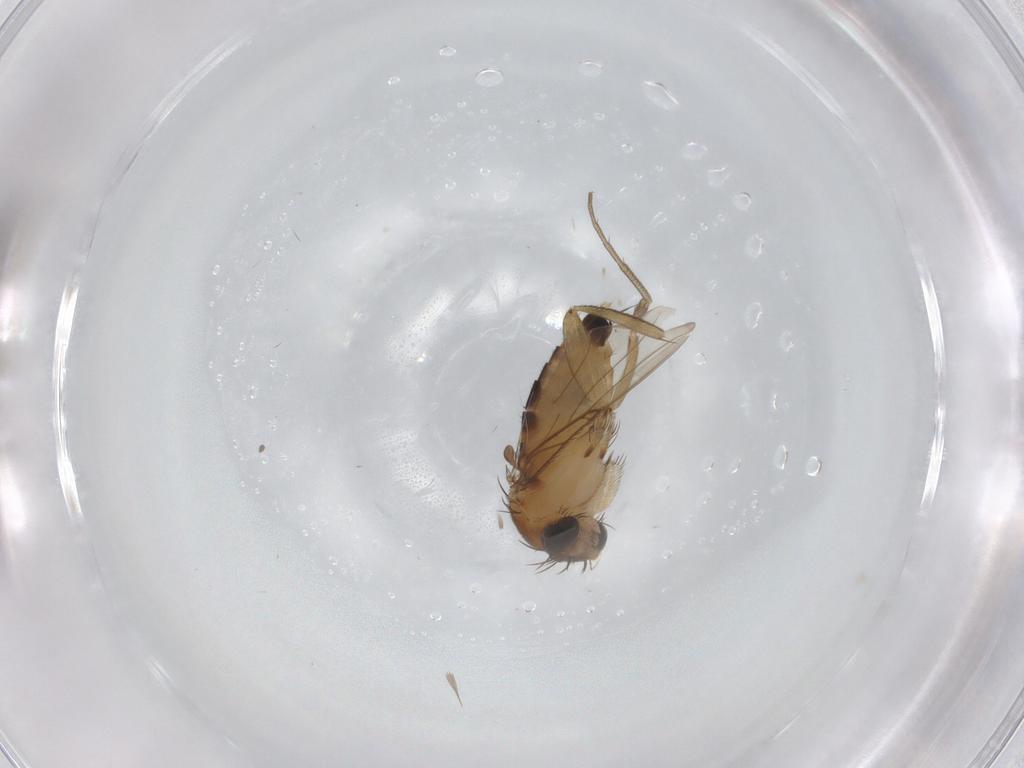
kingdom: Animalia
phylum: Arthropoda
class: Insecta
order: Diptera
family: Phoridae
